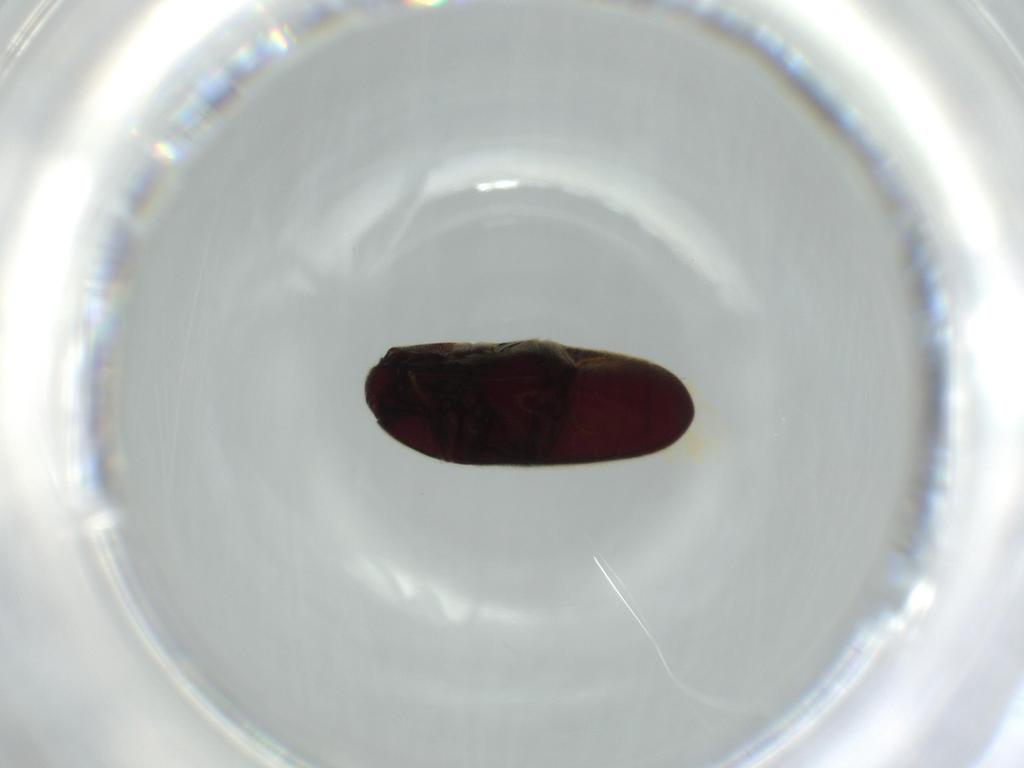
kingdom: Animalia
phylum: Arthropoda
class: Insecta
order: Coleoptera
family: Throscidae
